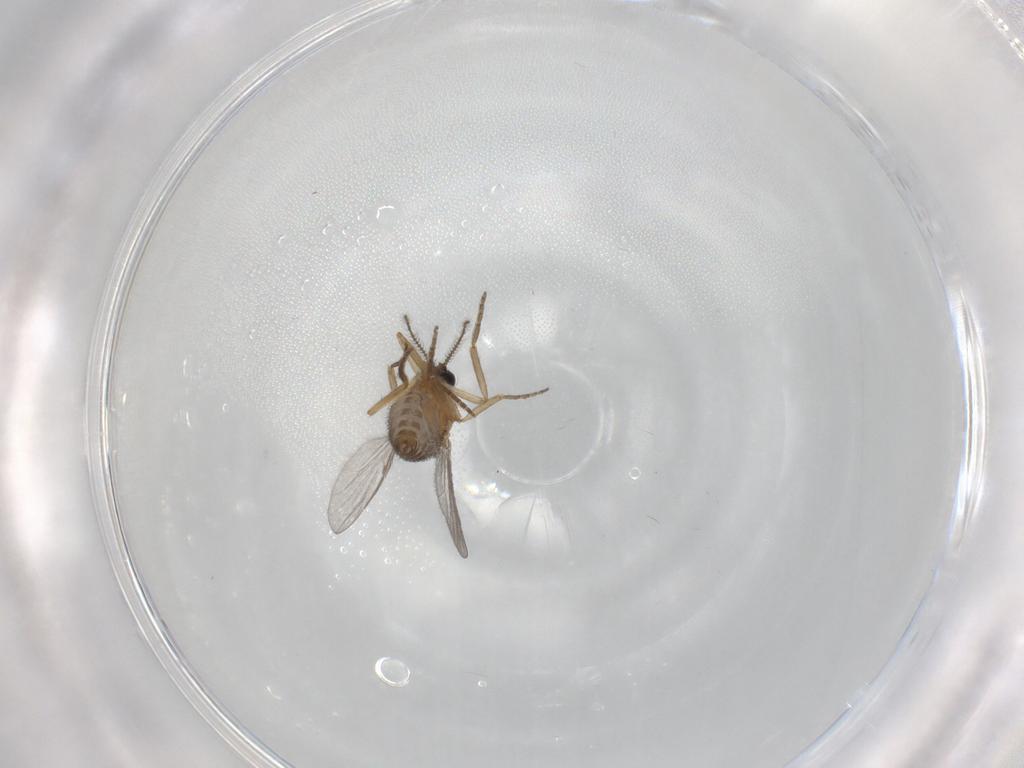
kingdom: Animalia
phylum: Arthropoda
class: Insecta
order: Diptera
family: Ceratopogonidae
